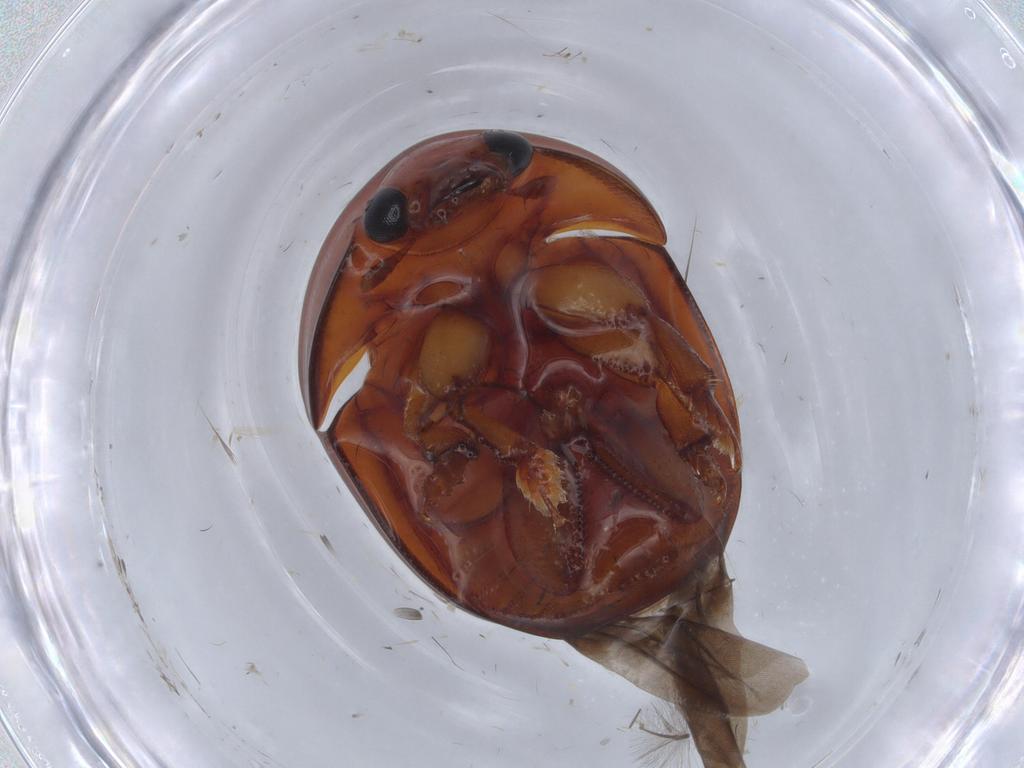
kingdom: Animalia
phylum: Arthropoda
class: Insecta
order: Coleoptera
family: Nitidulidae
